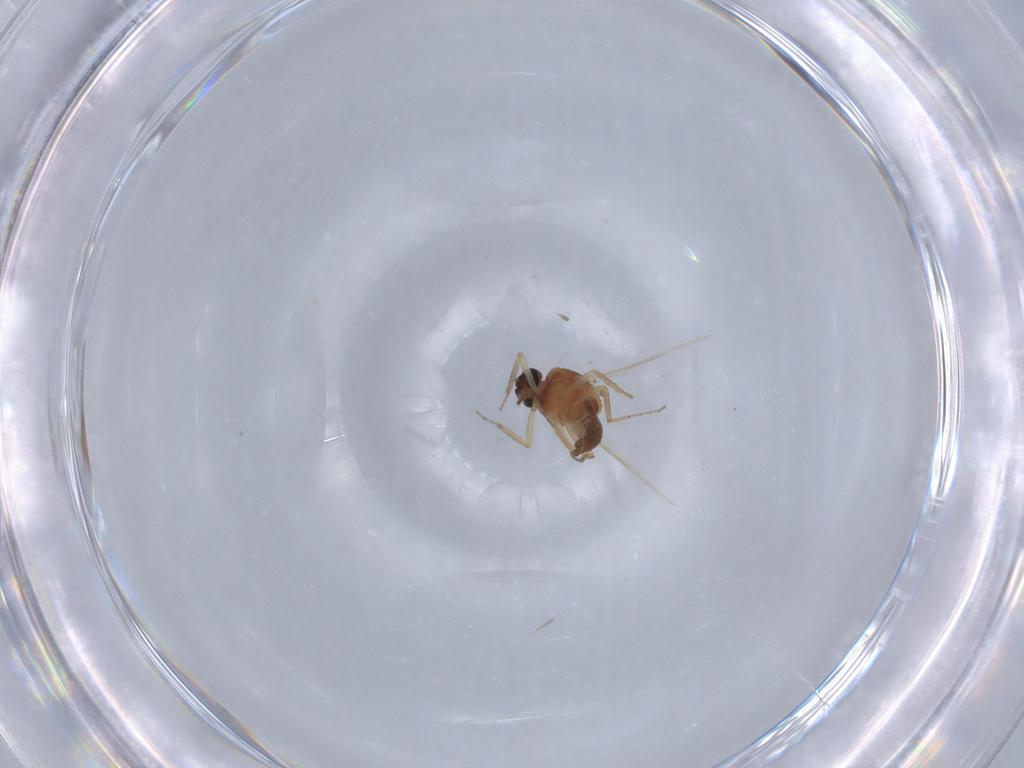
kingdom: Animalia
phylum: Arthropoda
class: Insecta
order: Diptera
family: Ceratopogonidae
